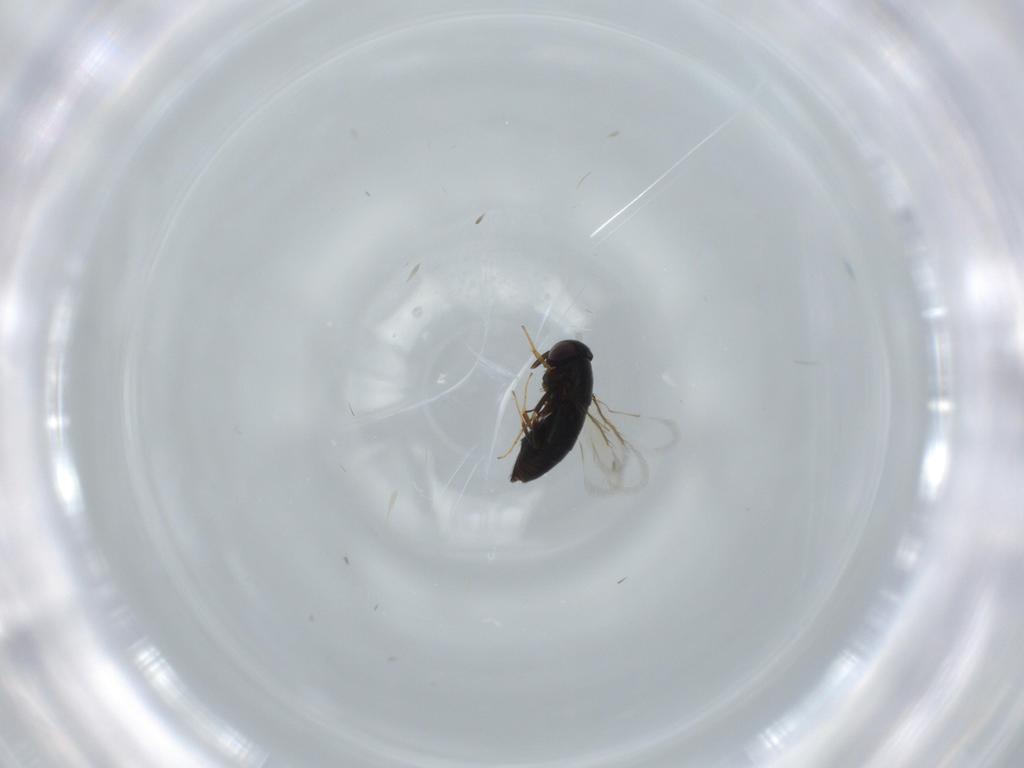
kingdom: Animalia
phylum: Arthropoda
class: Insecta
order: Hymenoptera
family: Signiphoridae
